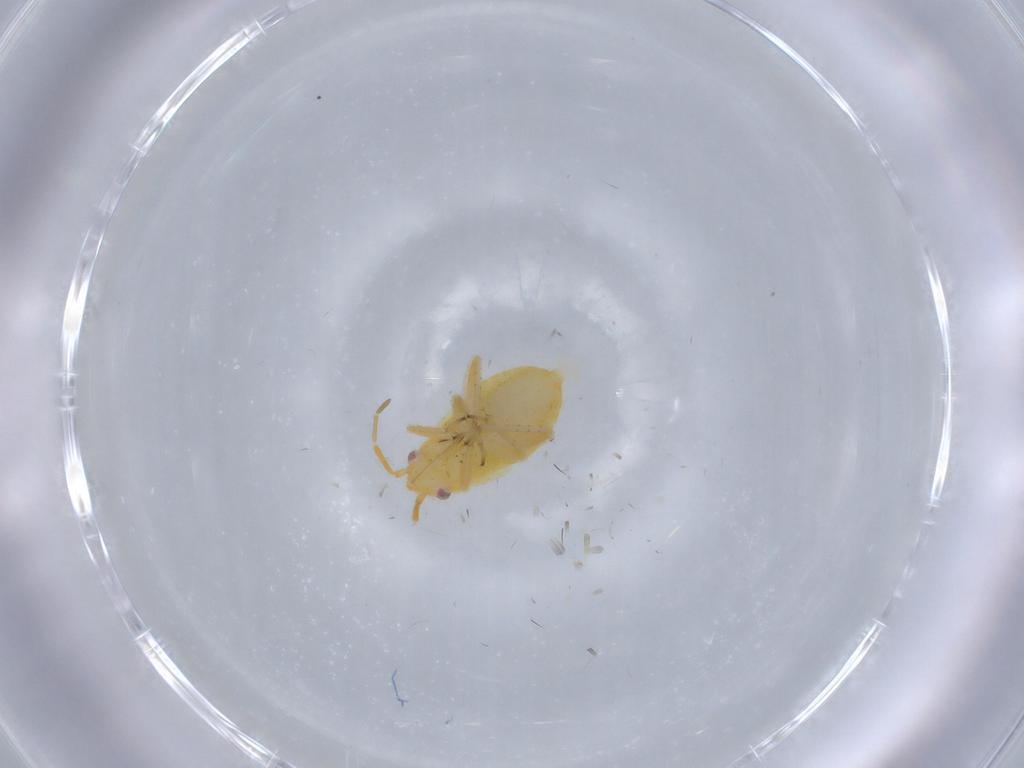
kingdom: Animalia
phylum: Arthropoda
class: Insecta
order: Hemiptera
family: Miridae
